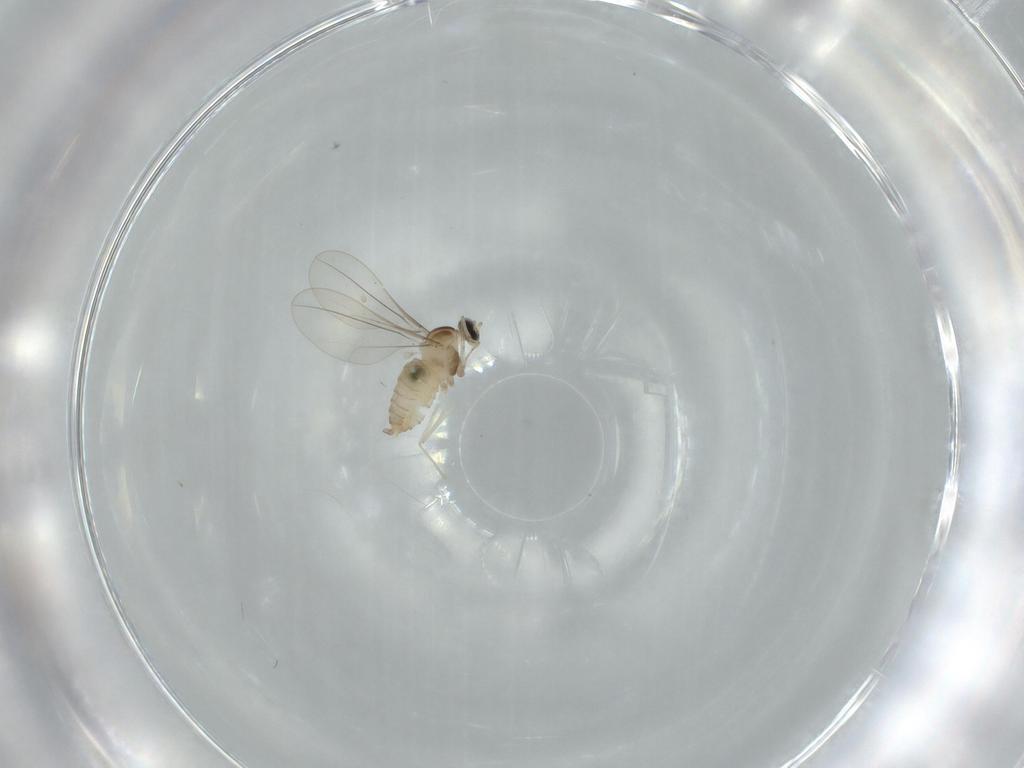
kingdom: Animalia
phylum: Arthropoda
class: Insecta
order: Diptera
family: Cecidomyiidae
